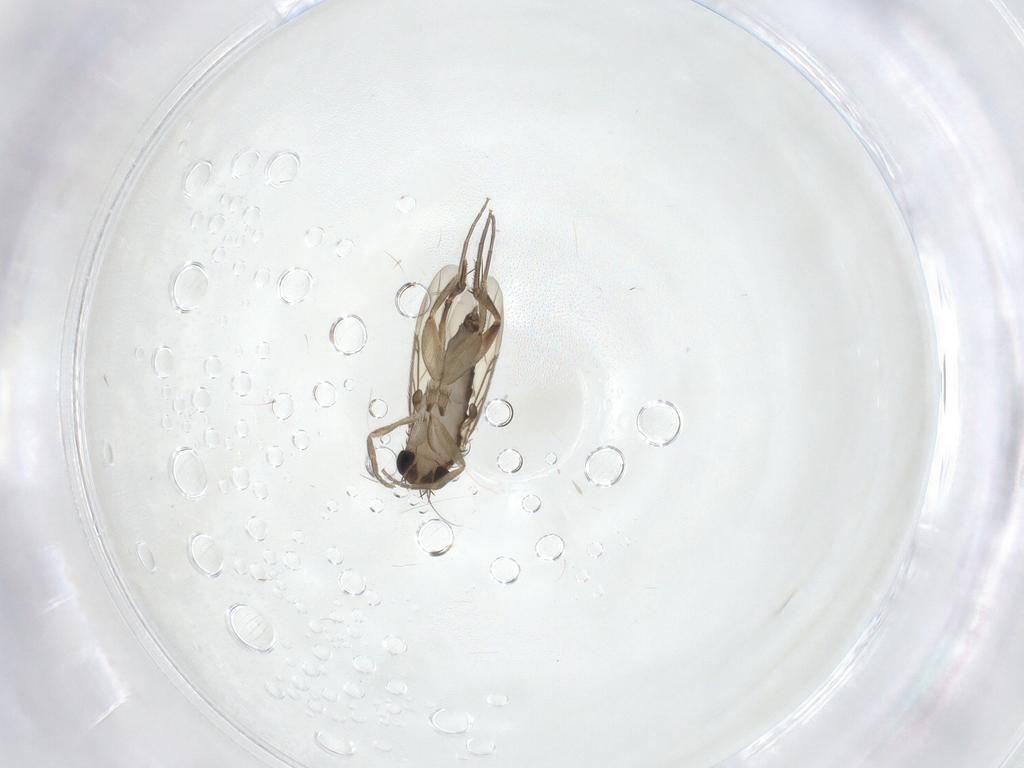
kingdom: Animalia
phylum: Arthropoda
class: Insecta
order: Diptera
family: Phoridae
